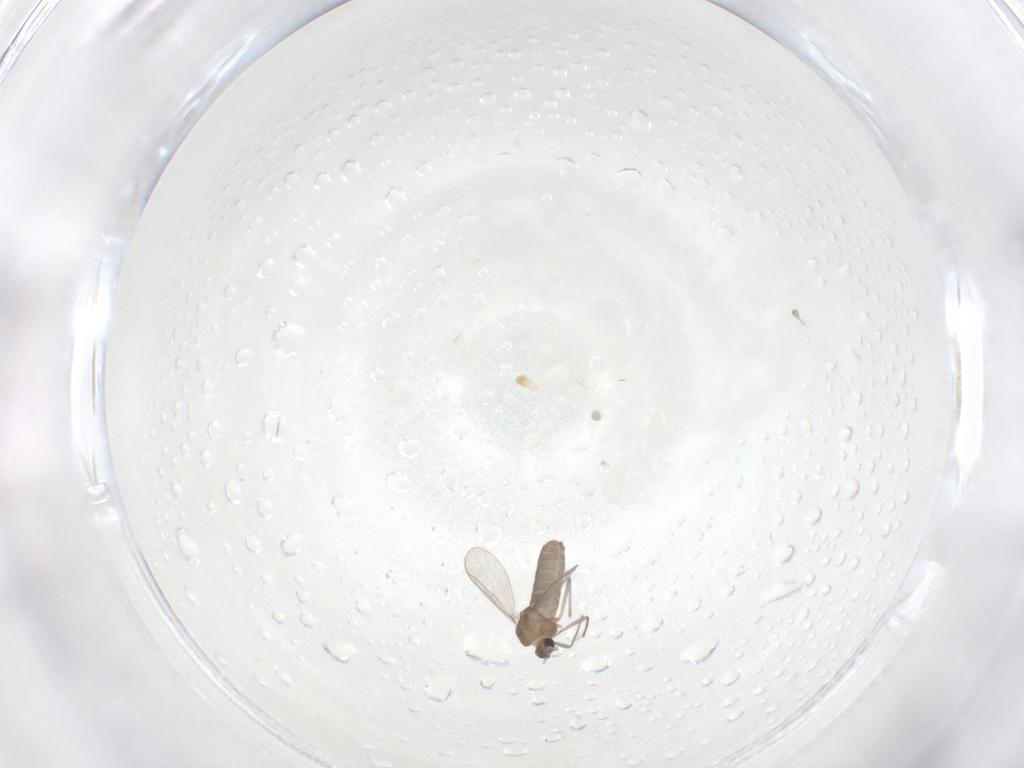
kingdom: Animalia
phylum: Arthropoda
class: Insecta
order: Diptera
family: Chironomidae
